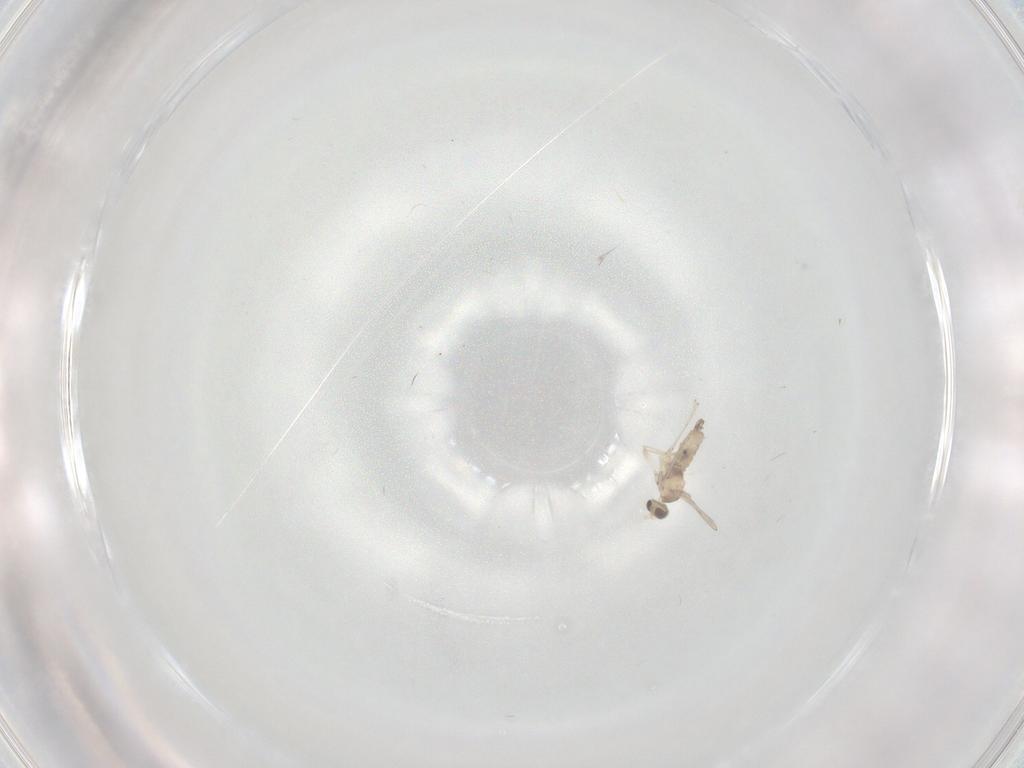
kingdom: Animalia
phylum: Arthropoda
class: Insecta
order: Diptera
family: Cecidomyiidae
